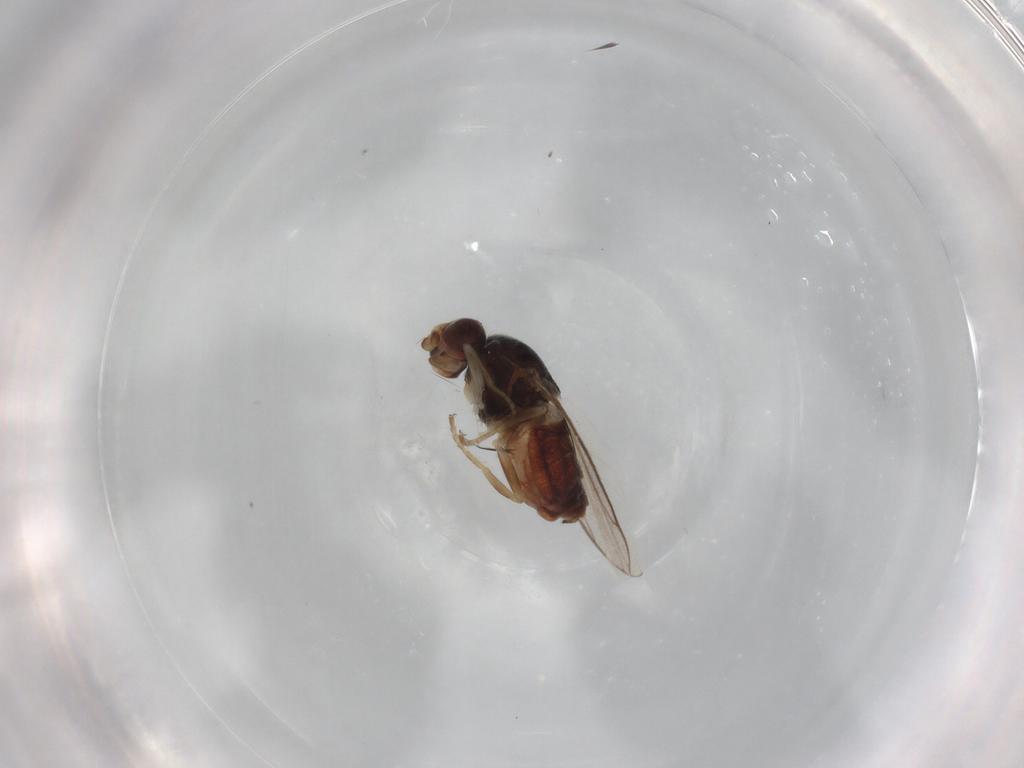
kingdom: Animalia
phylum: Arthropoda
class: Insecta
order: Diptera
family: Chloropidae
